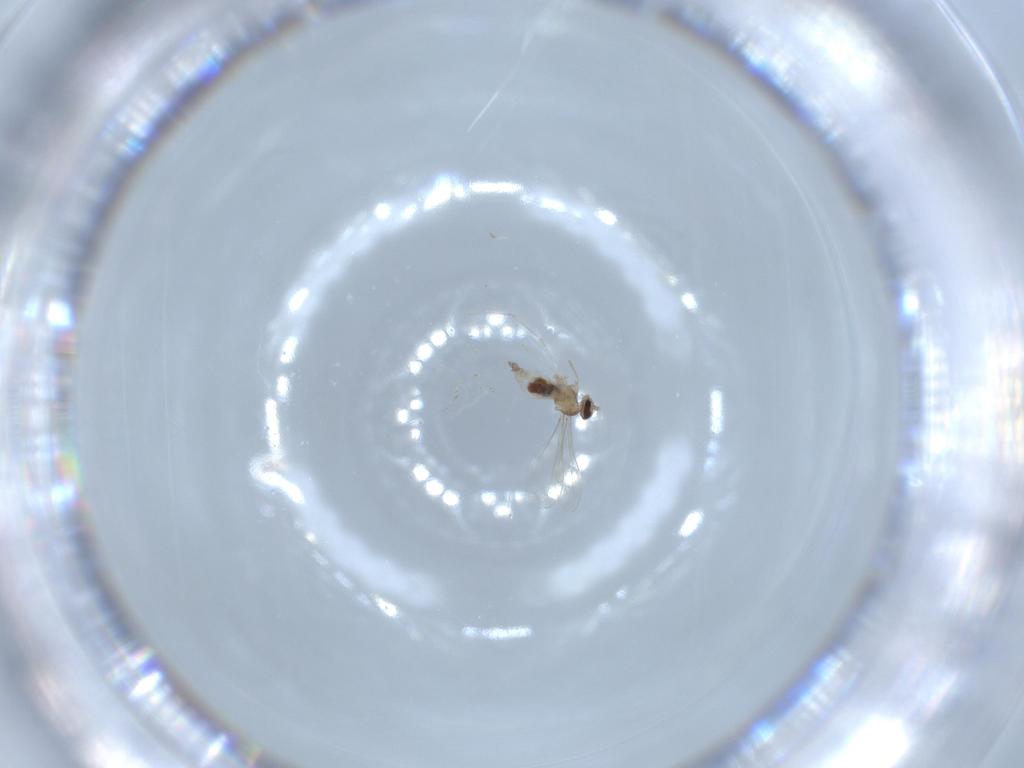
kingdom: Animalia
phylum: Arthropoda
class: Insecta
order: Diptera
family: Cecidomyiidae
